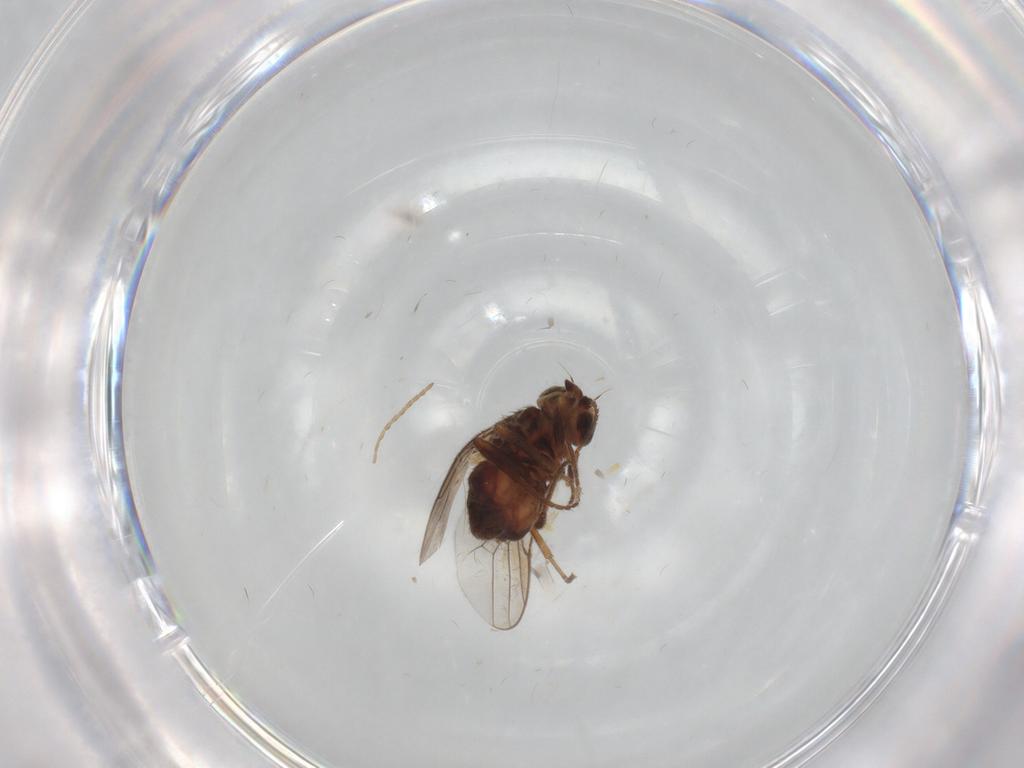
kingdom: Animalia
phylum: Arthropoda
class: Insecta
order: Diptera
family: Chloropidae
